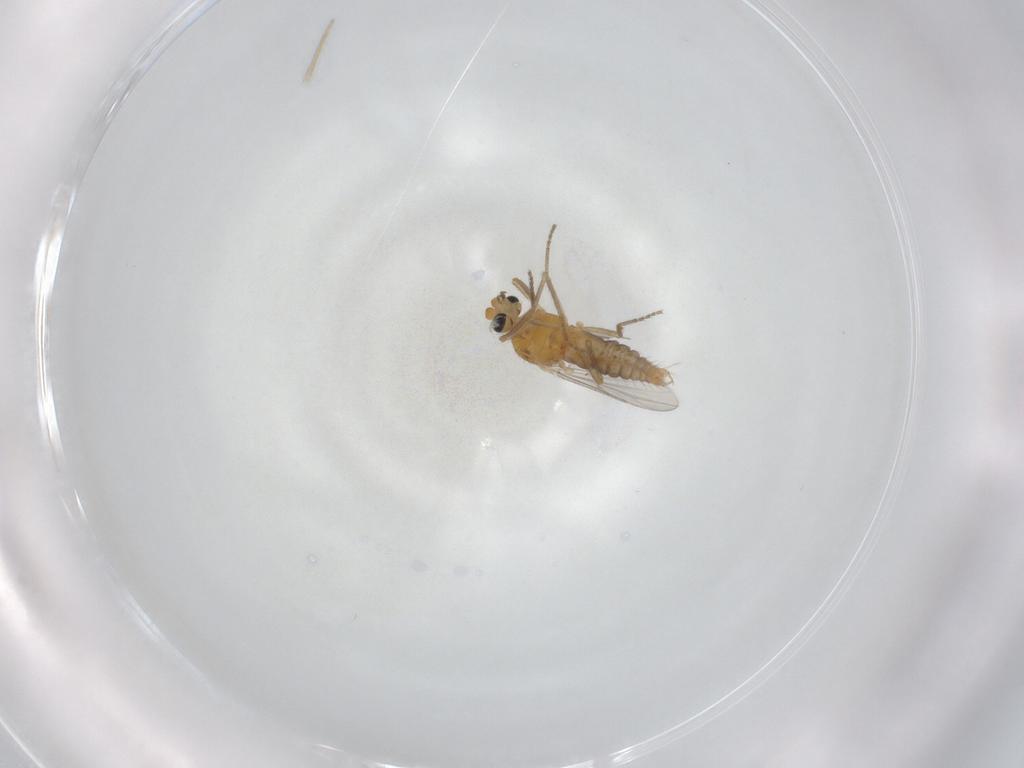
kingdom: Animalia
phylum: Arthropoda
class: Insecta
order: Diptera
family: Ceratopogonidae
